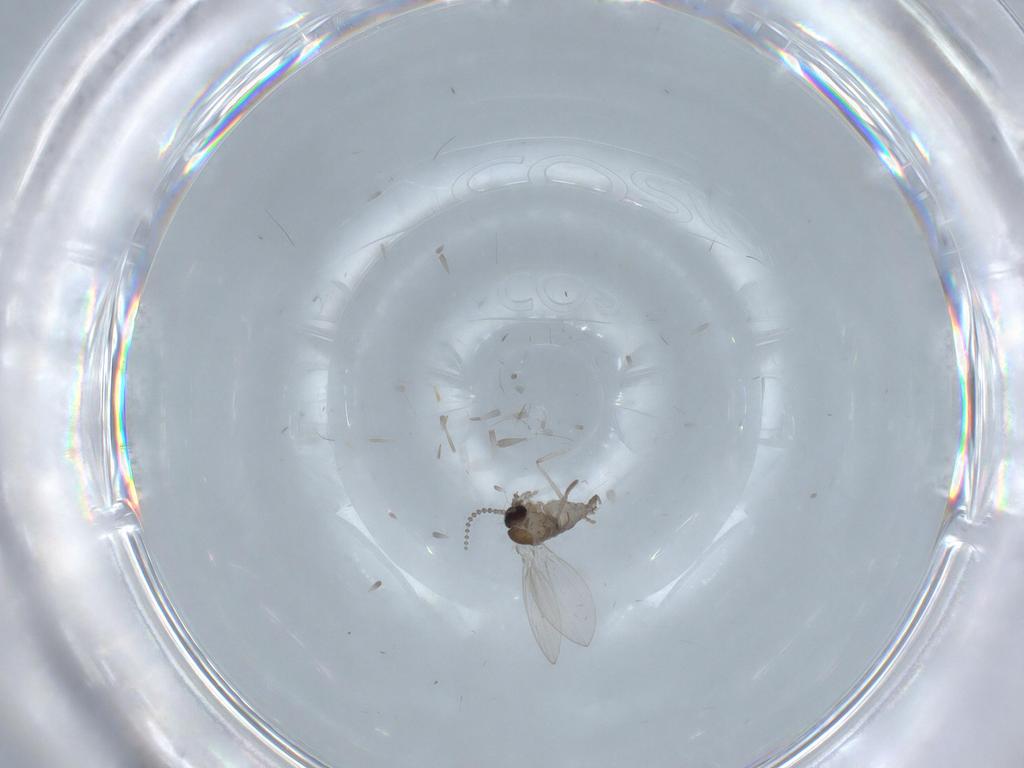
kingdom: Animalia
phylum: Arthropoda
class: Insecta
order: Diptera
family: Psychodidae
